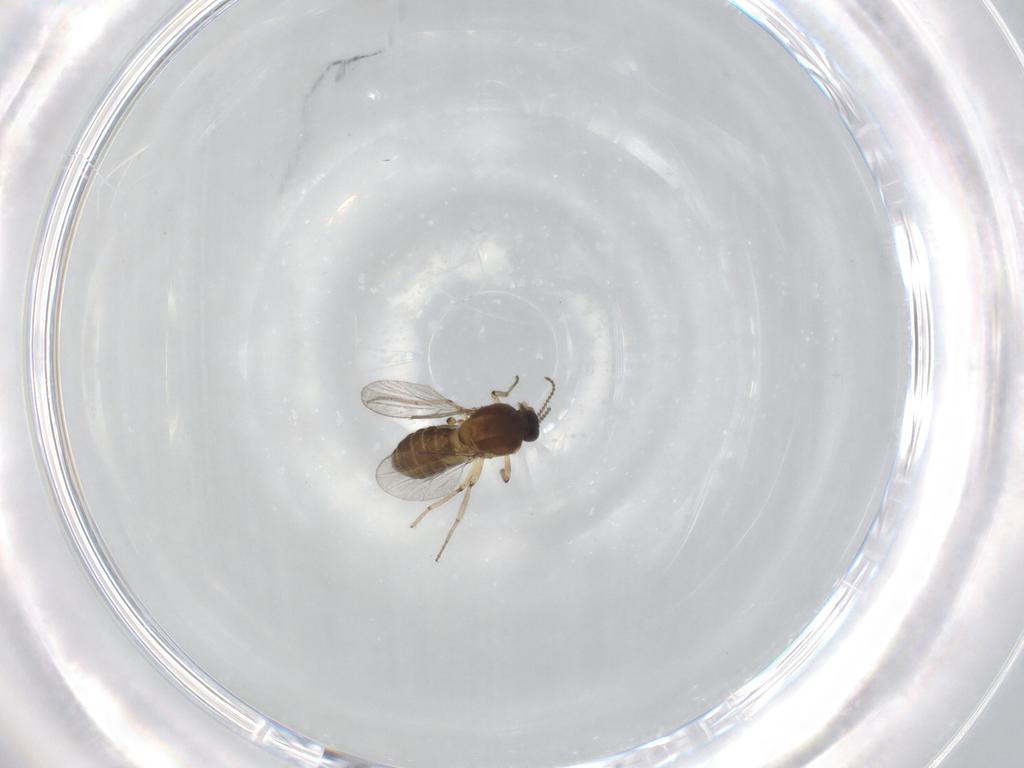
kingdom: Animalia
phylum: Arthropoda
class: Insecta
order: Diptera
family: Ceratopogonidae
